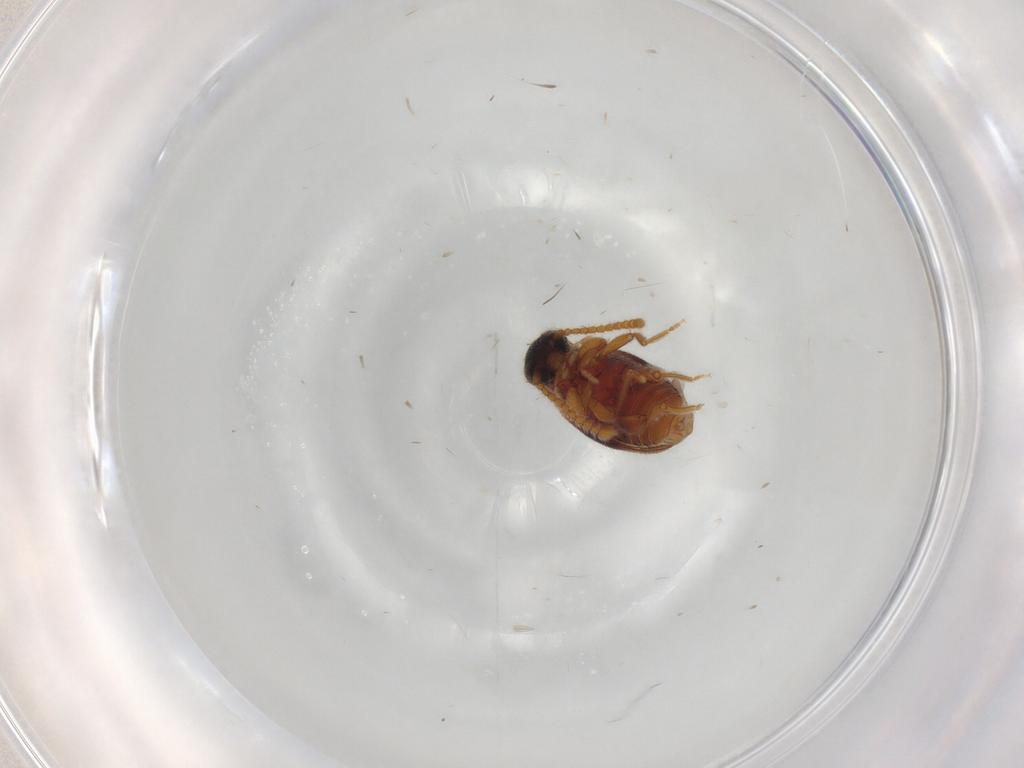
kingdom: Animalia
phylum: Arthropoda
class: Insecta
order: Coleoptera
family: Aderidae
